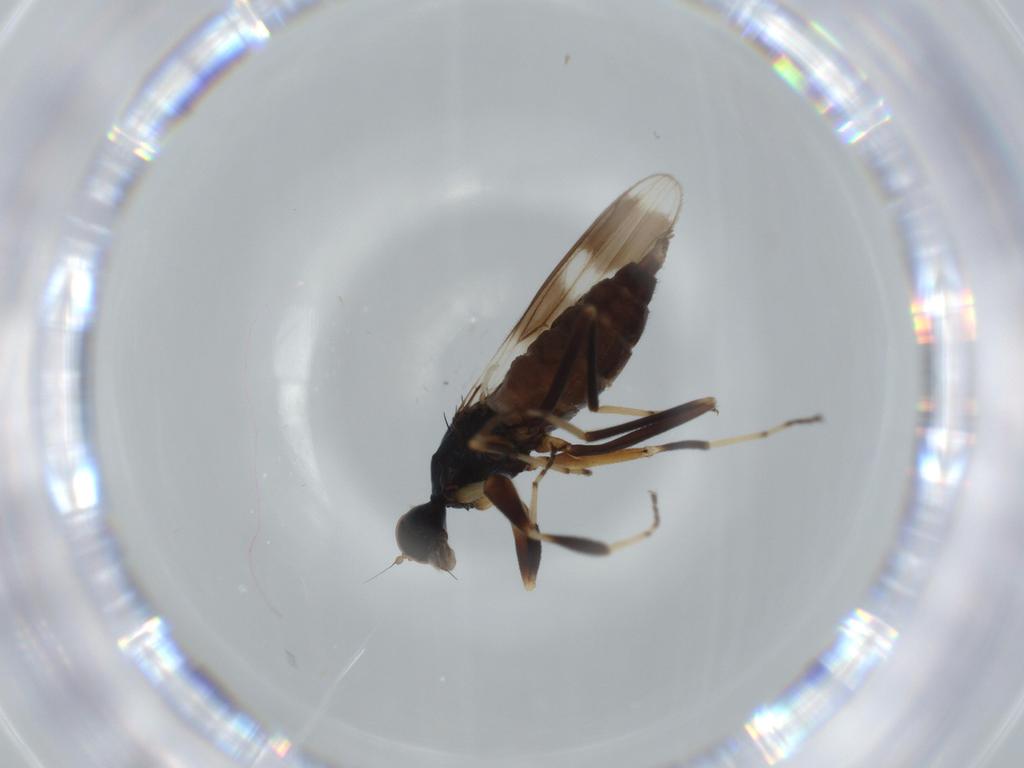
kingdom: Animalia
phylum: Arthropoda
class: Insecta
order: Diptera
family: Hybotidae
